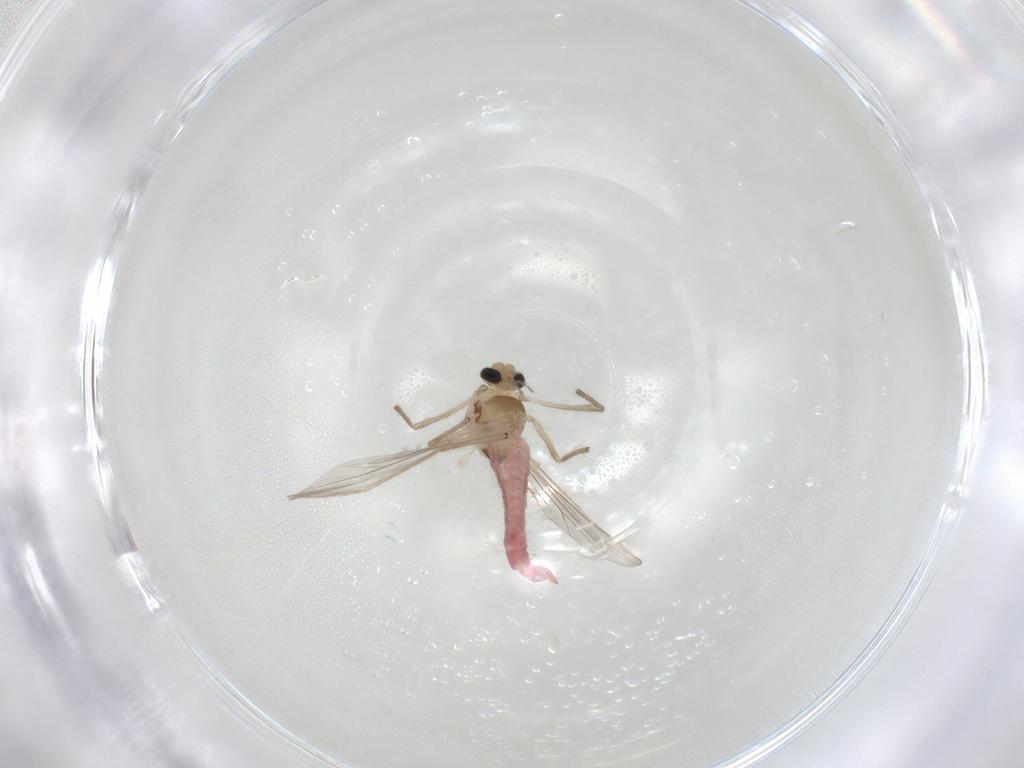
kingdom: Animalia
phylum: Arthropoda
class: Insecta
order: Diptera
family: Chironomidae
